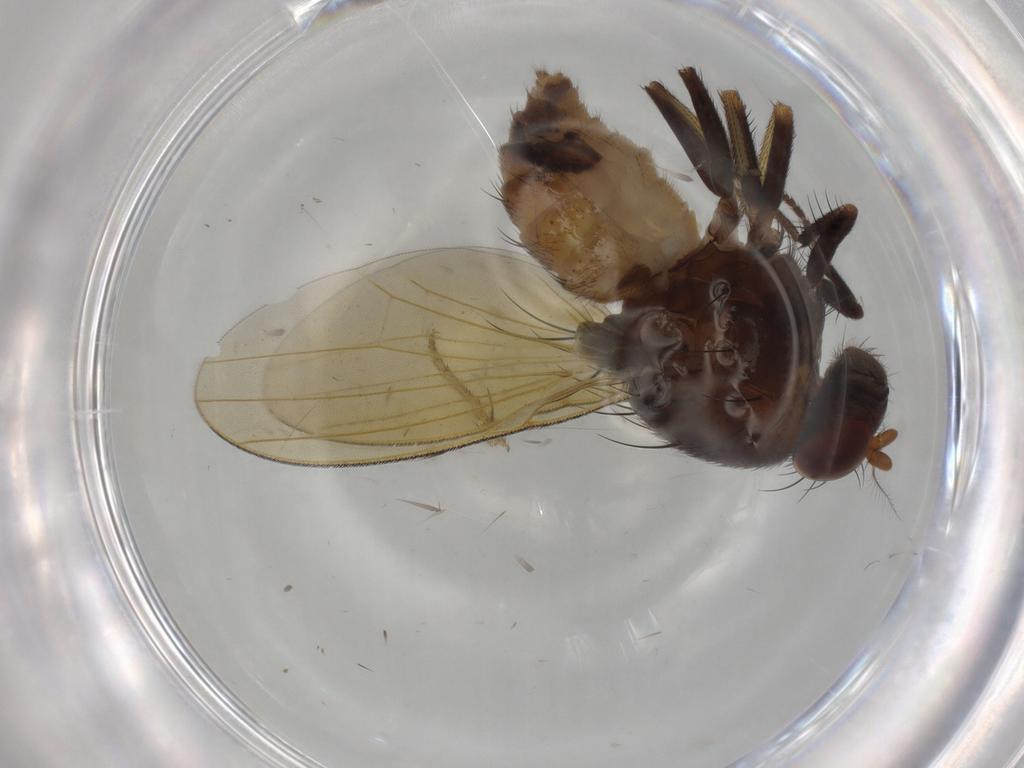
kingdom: Animalia
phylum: Arthropoda
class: Insecta
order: Diptera
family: Lauxaniidae
